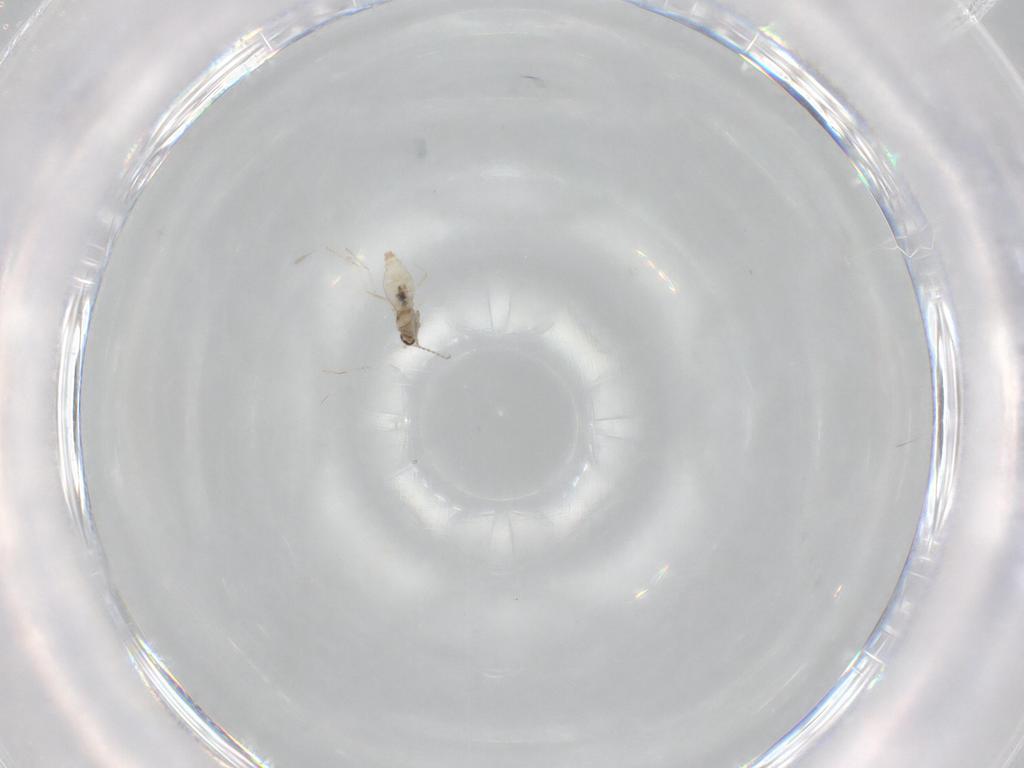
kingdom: Animalia
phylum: Arthropoda
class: Insecta
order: Diptera
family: Cecidomyiidae
